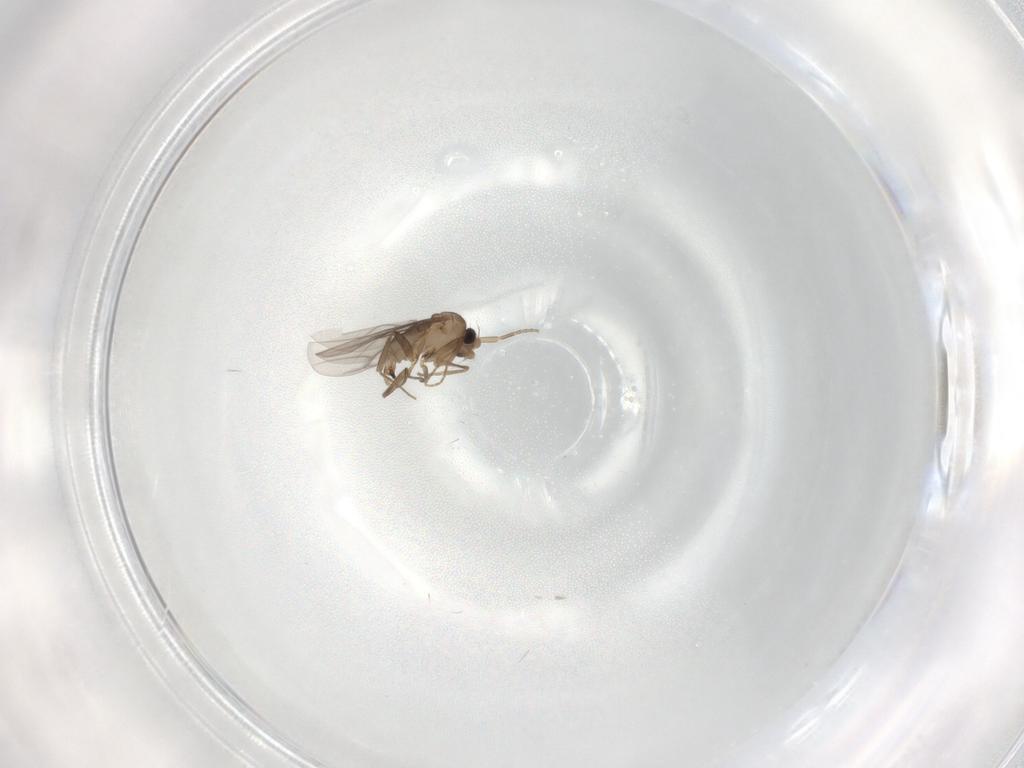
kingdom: Animalia
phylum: Arthropoda
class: Insecta
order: Diptera
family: Phoridae
